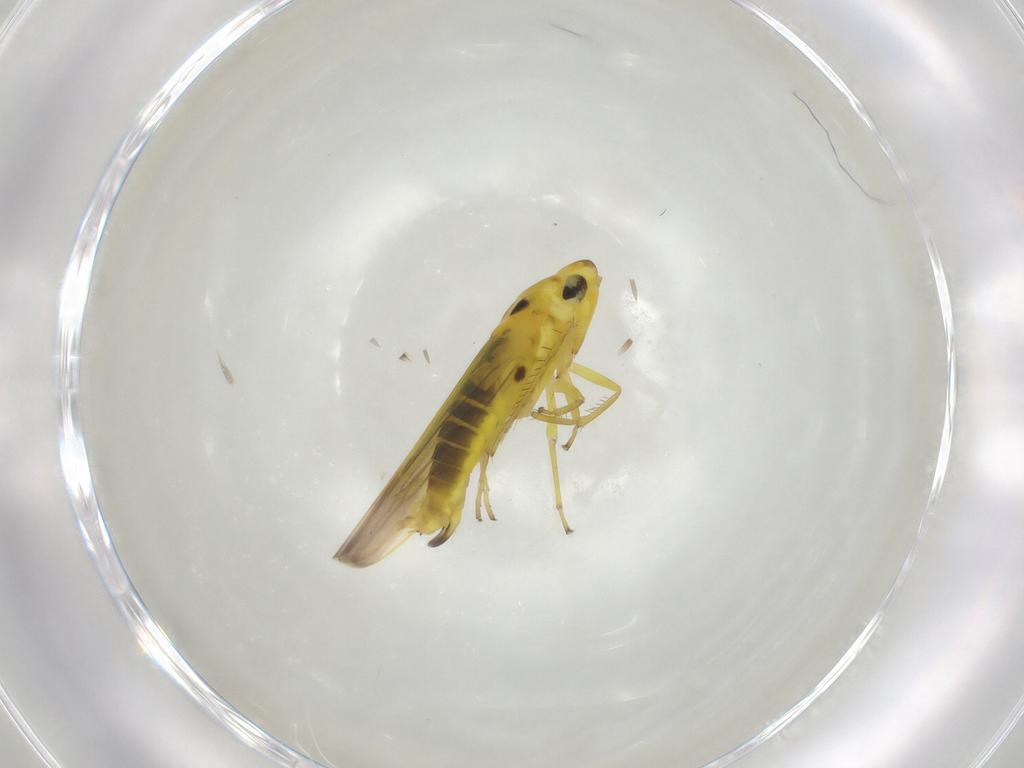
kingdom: Animalia
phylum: Arthropoda
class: Insecta
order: Hemiptera
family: Cicadellidae
